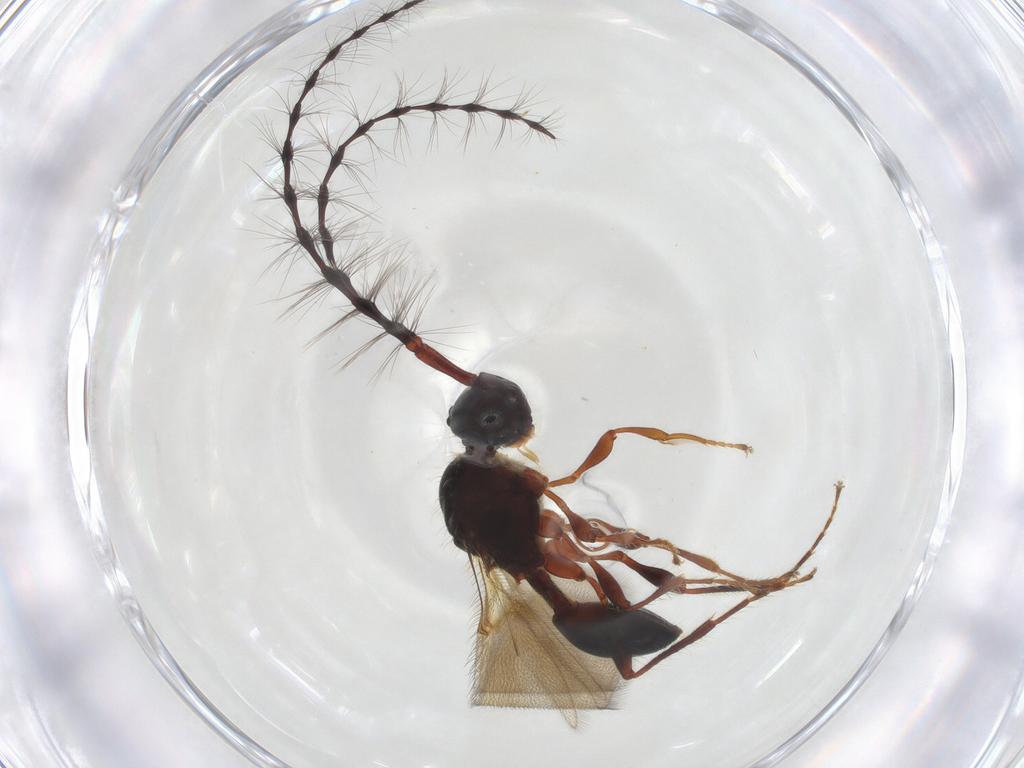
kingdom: Animalia
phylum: Arthropoda
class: Insecta
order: Hymenoptera
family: Diapriidae
